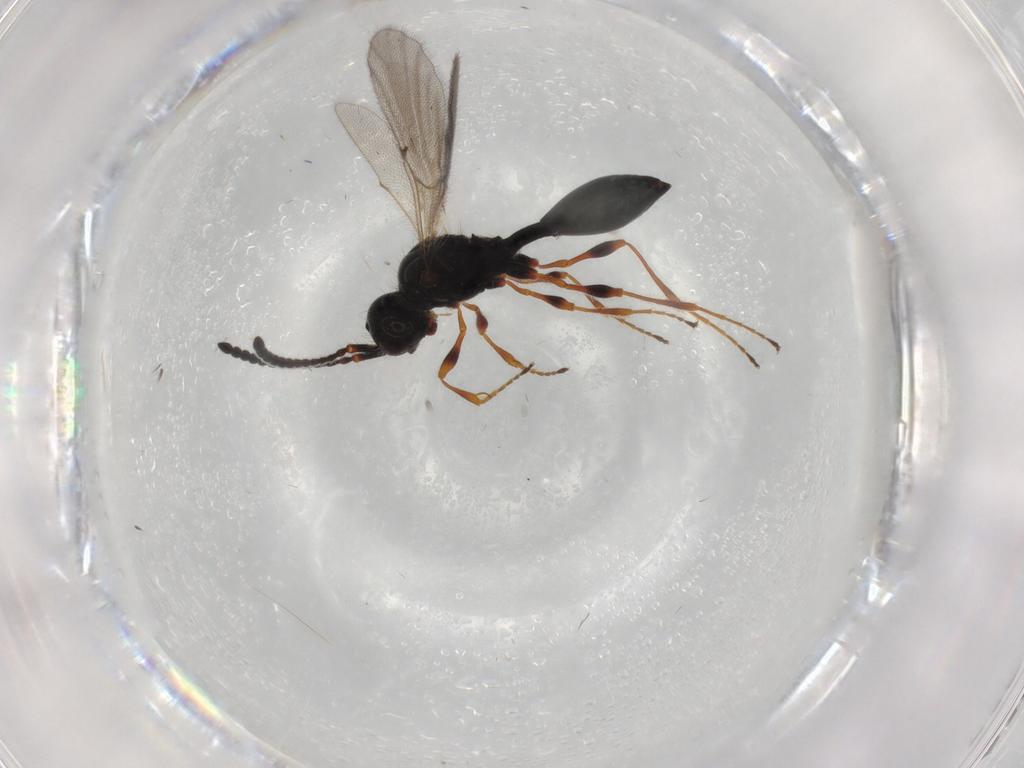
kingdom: Animalia
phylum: Arthropoda
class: Insecta
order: Hymenoptera
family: Diapriidae
